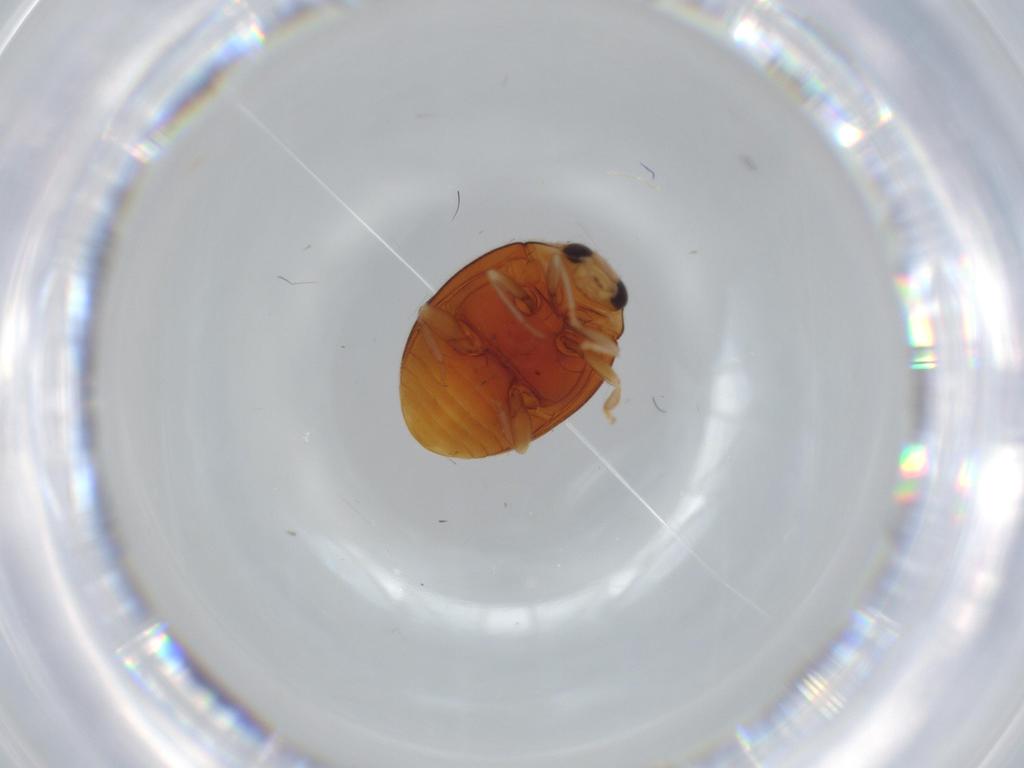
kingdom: Animalia
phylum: Arthropoda
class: Insecta
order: Coleoptera
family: Coccinellidae
